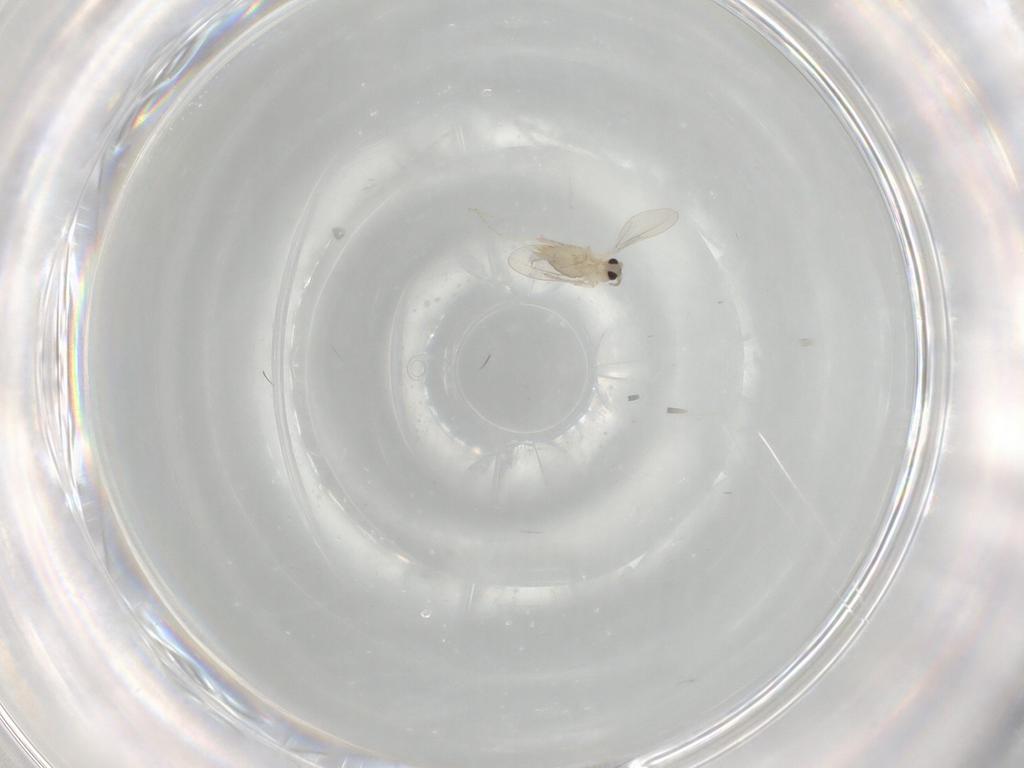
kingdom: Animalia
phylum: Arthropoda
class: Insecta
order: Diptera
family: Cecidomyiidae
